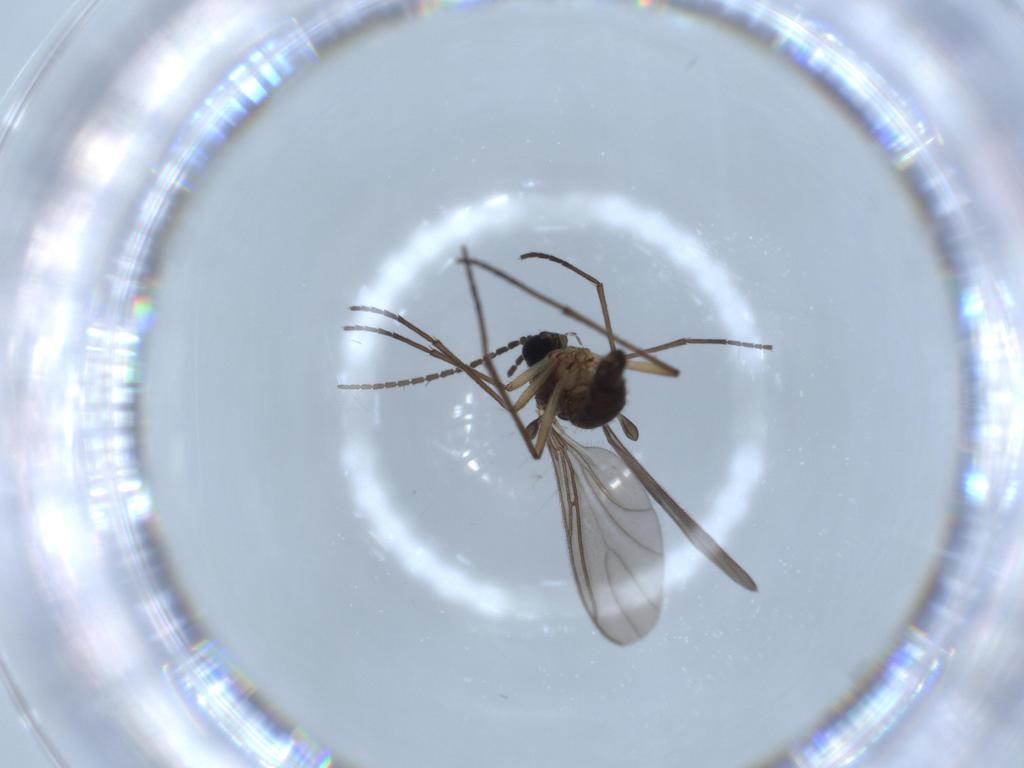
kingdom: Animalia
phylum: Arthropoda
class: Insecta
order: Diptera
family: Sciaridae
